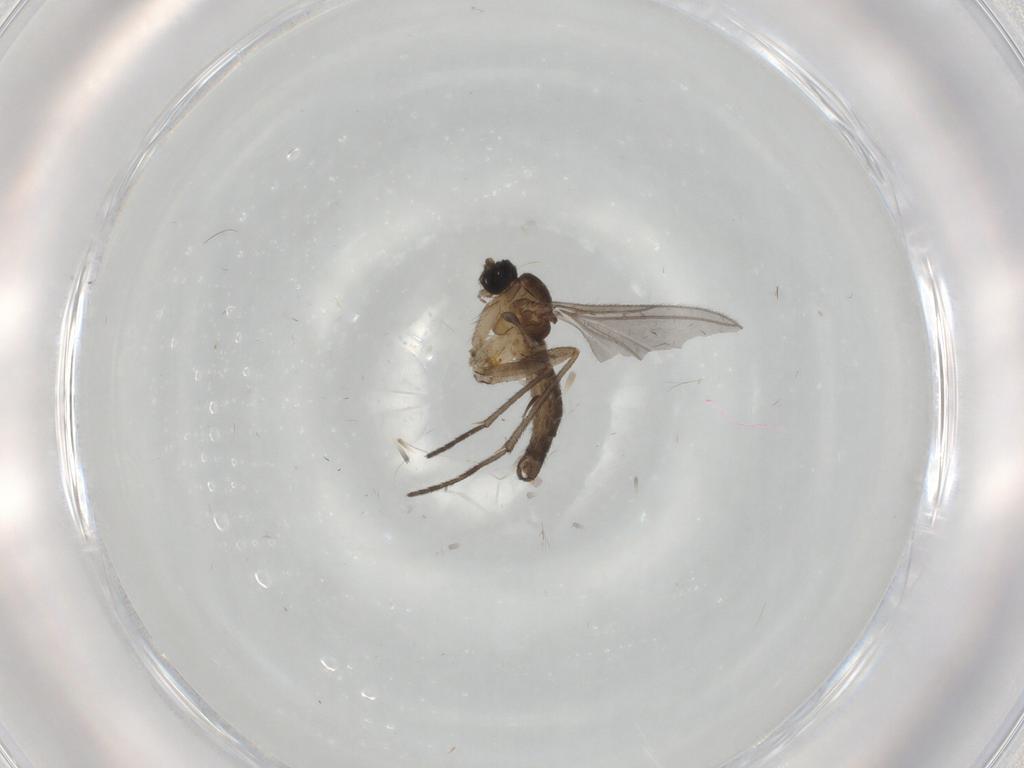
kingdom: Animalia
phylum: Arthropoda
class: Insecta
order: Diptera
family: Sciaridae
